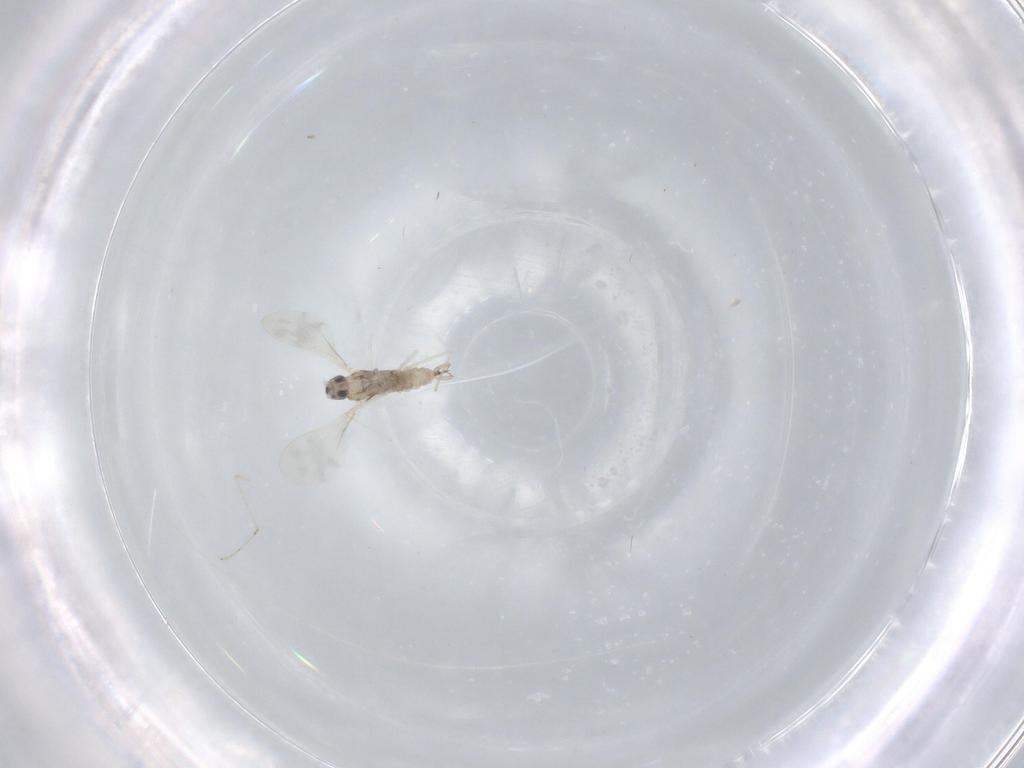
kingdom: Animalia
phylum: Arthropoda
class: Insecta
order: Diptera
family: Cecidomyiidae
